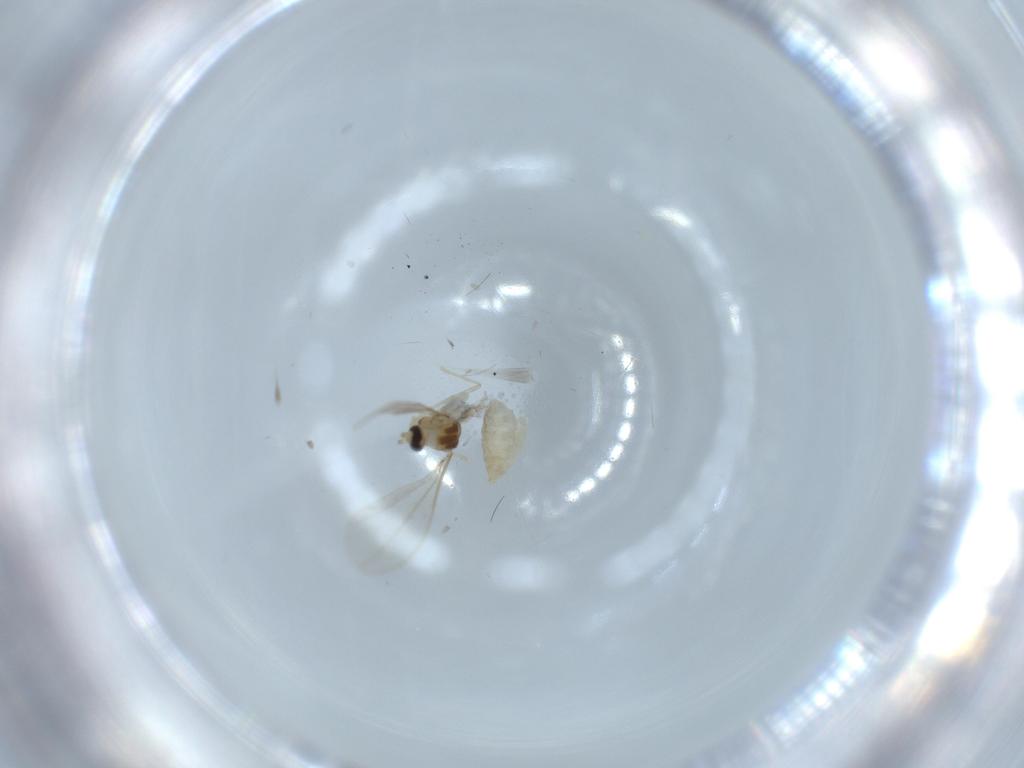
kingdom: Animalia
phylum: Arthropoda
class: Insecta
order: Diptera
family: Cecidomyiidae
